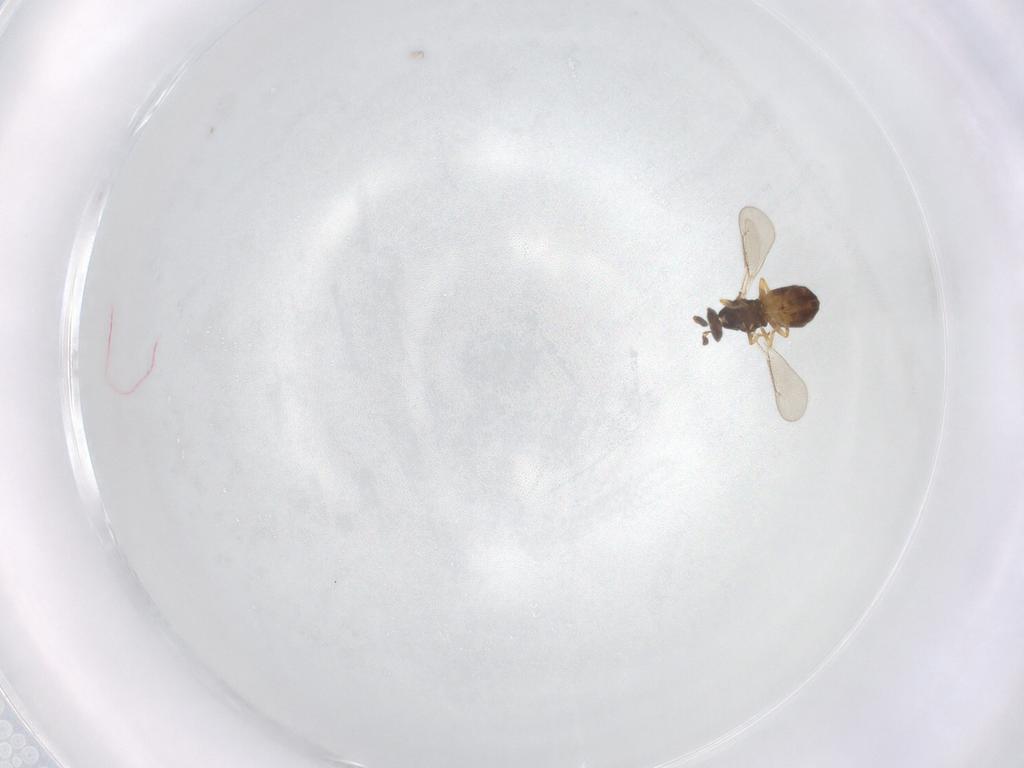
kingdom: Animalia
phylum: Arthropoda
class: Insecta
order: Hymenoptera
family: Eulophidae
